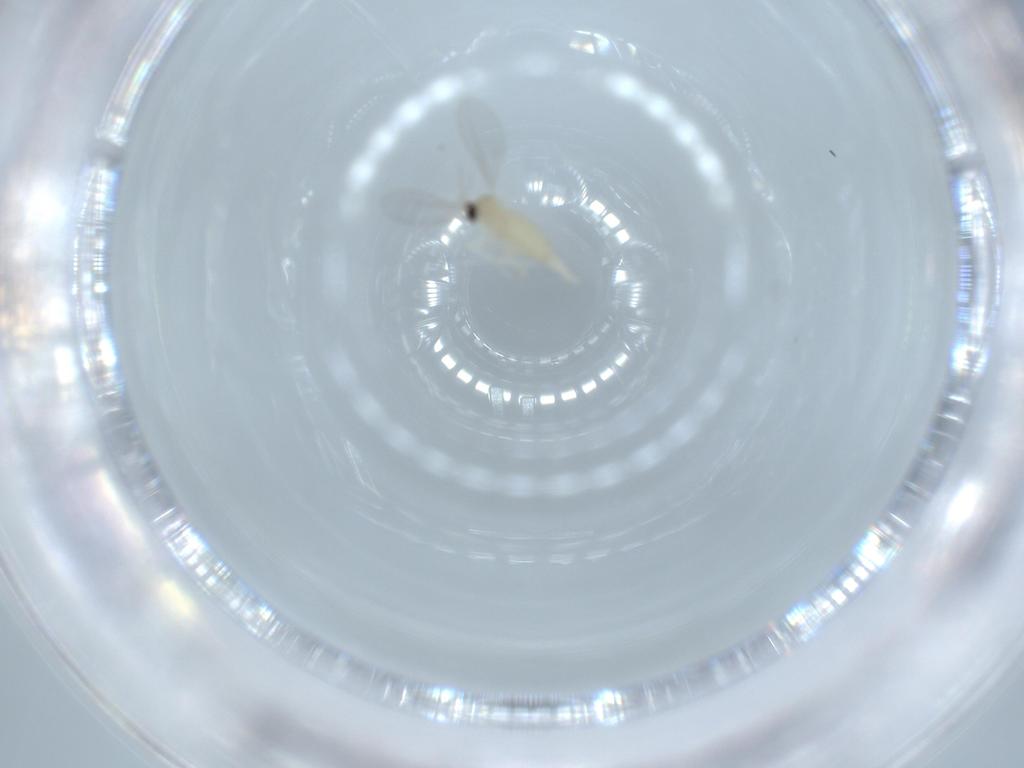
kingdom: Animalia
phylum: Arthropoda
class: Insecta
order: Diptera
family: Cecidomyiidae
